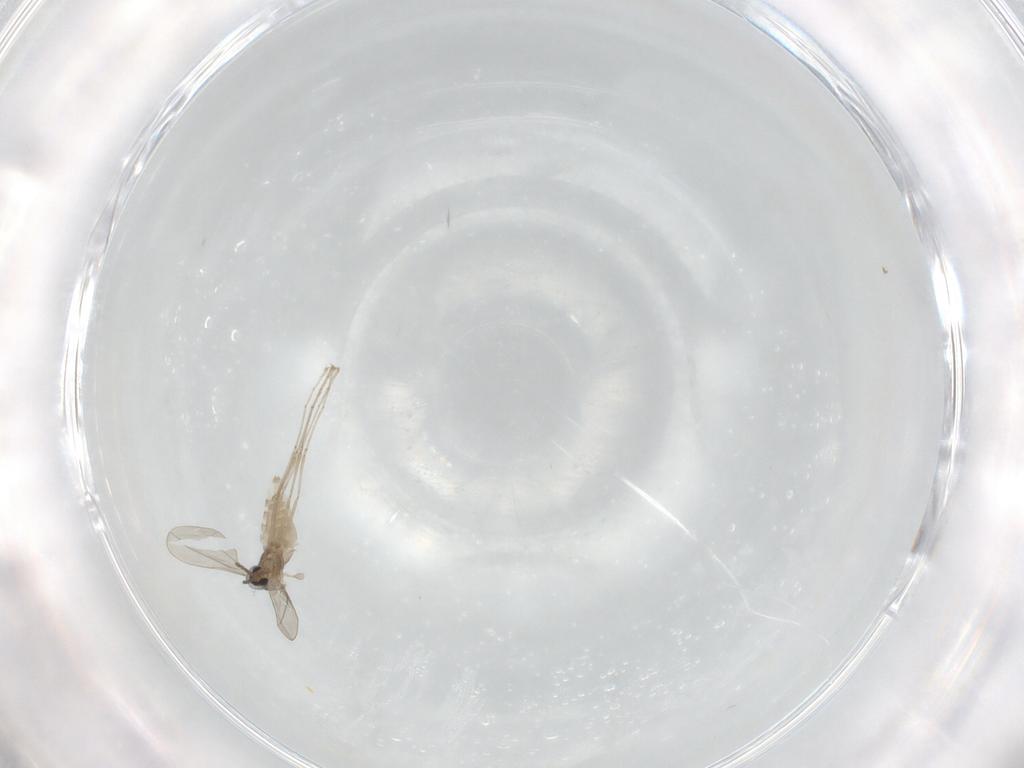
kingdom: Animalia
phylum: Arthropoda
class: Insecta
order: Diptera
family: Cecidomyiidae
